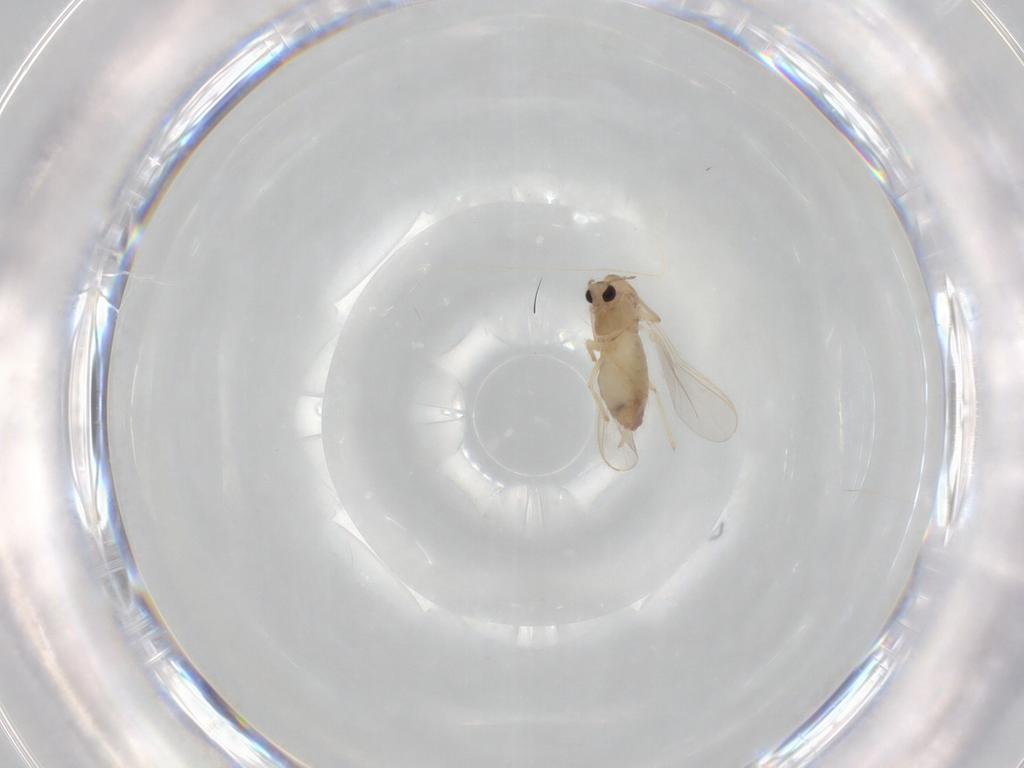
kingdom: Animalia
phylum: Arthropoda
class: Insecta
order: Diptera
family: Chironomidae
